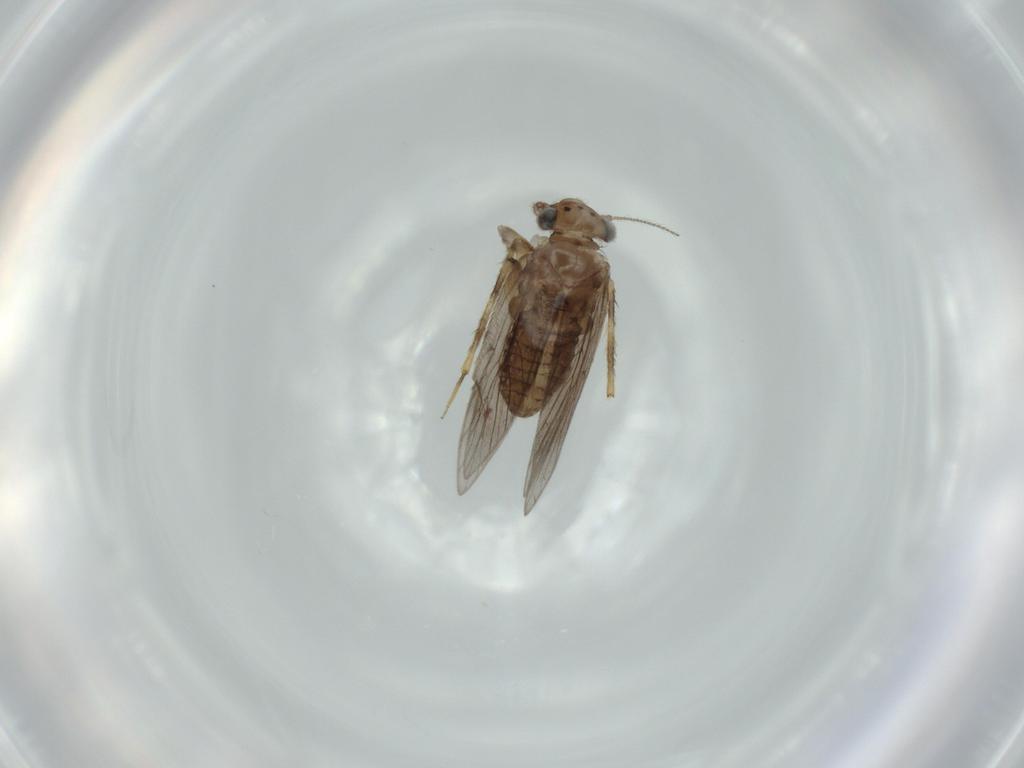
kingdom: Animalia
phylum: Arthropoda
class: Insecta
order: Psocodea
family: Lepidopsocidae
